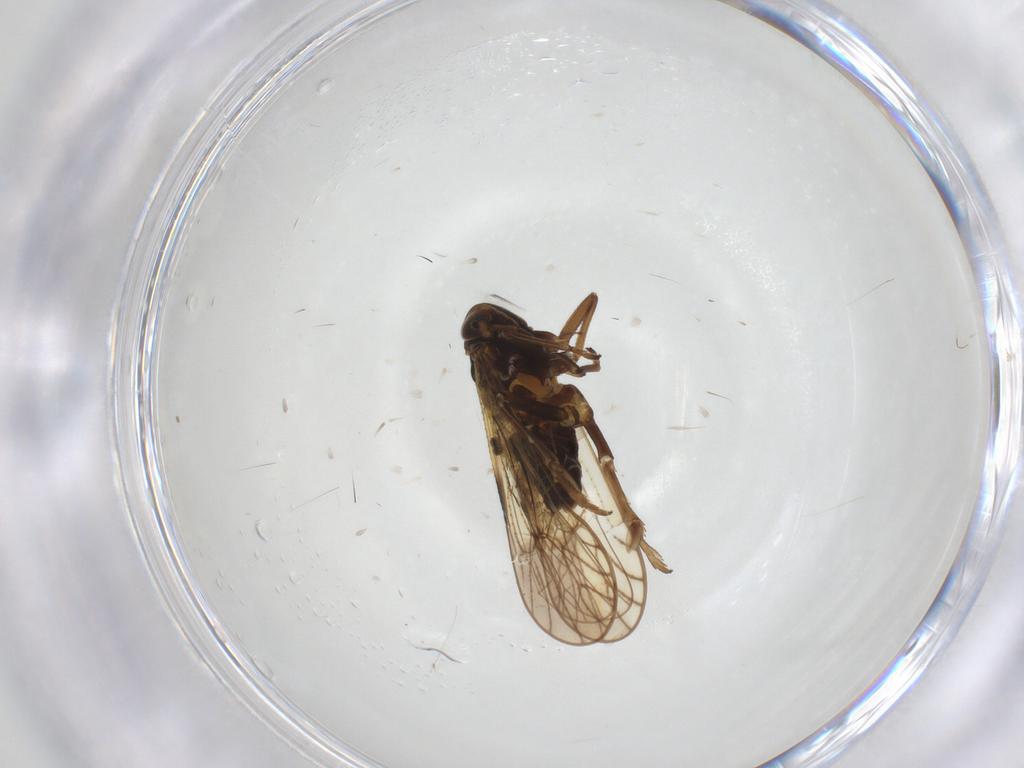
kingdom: Animalia
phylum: Arthropoda
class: Insecta
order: Hemiptera
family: Delphacidae
